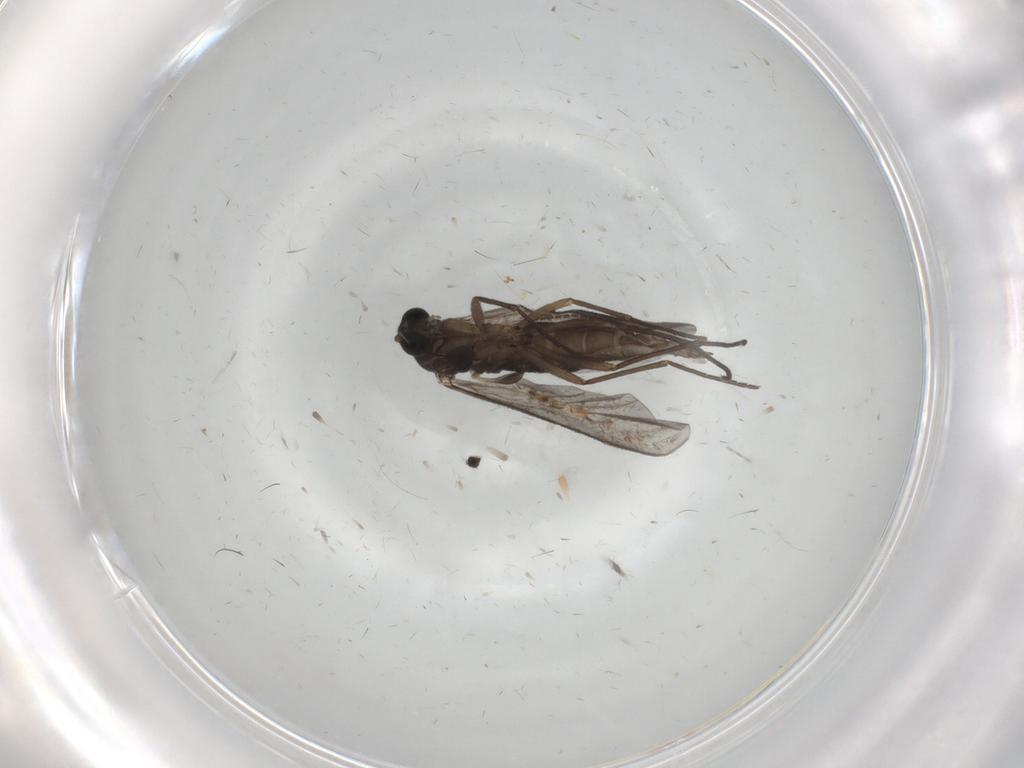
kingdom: Animalia
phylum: Arthropoda
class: Insecta
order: Diptera
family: Sciaridae
